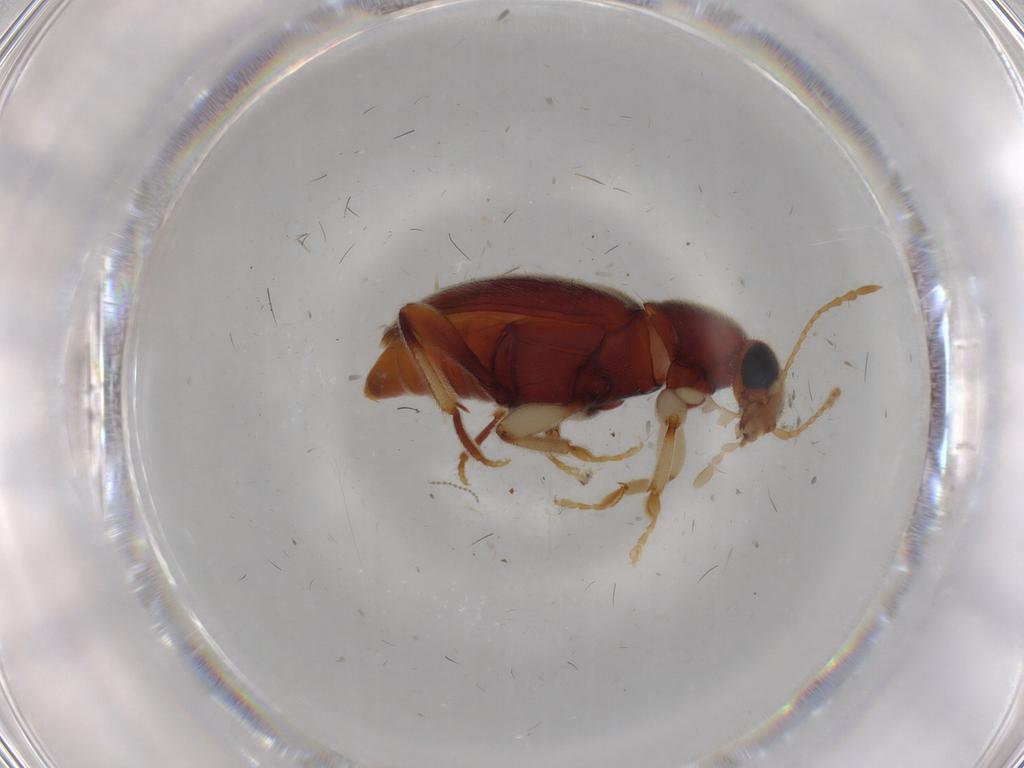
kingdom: Animalia
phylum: Arthropoda
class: Insecta
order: Coleoptera
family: Anthicidae
